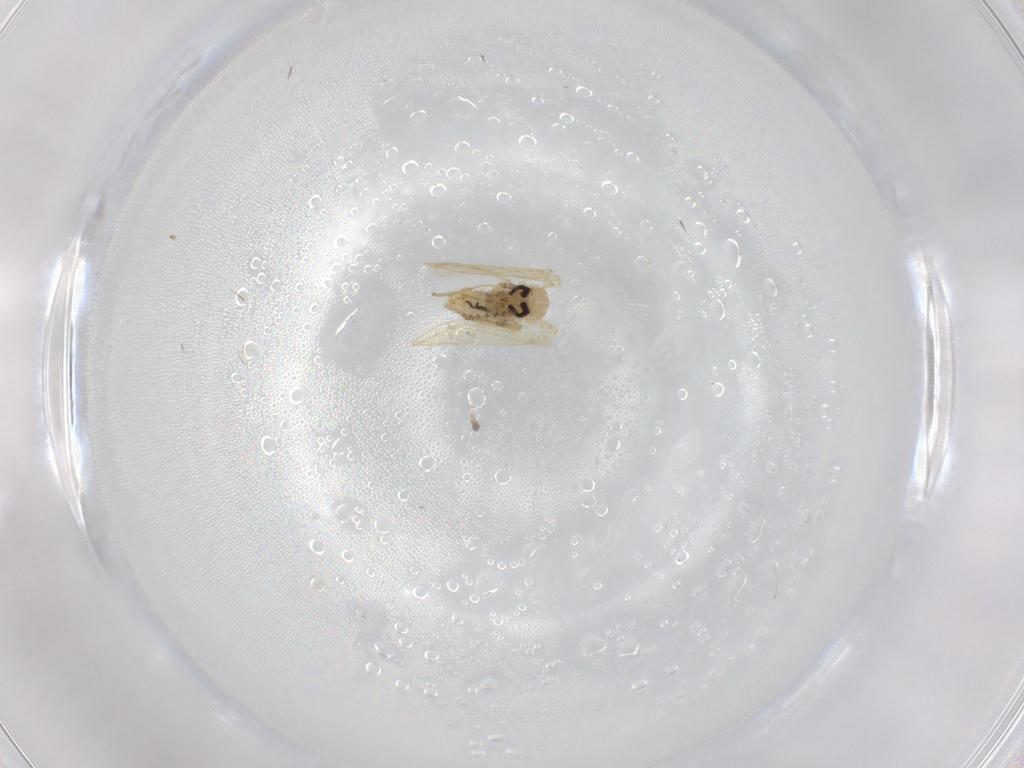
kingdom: Animalia
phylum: Arthropoda
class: Insecta
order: Diptera
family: Psychodidae
